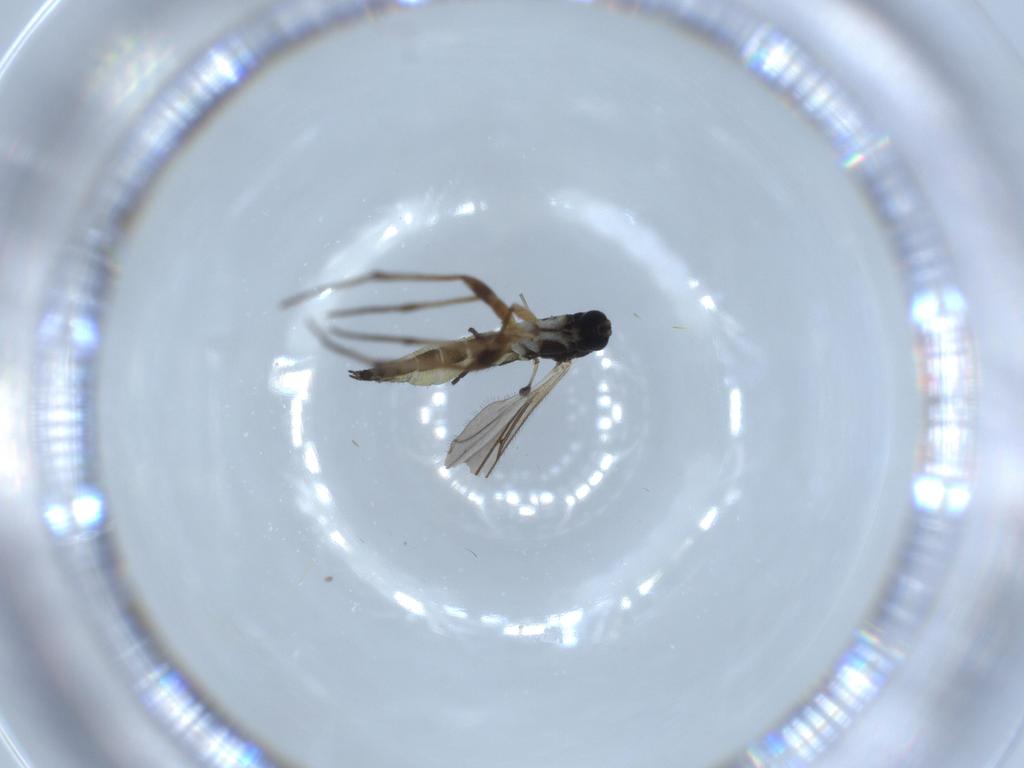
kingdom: Animalia
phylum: Arthropoda
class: Insecta
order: Diptera
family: Sciaridae
